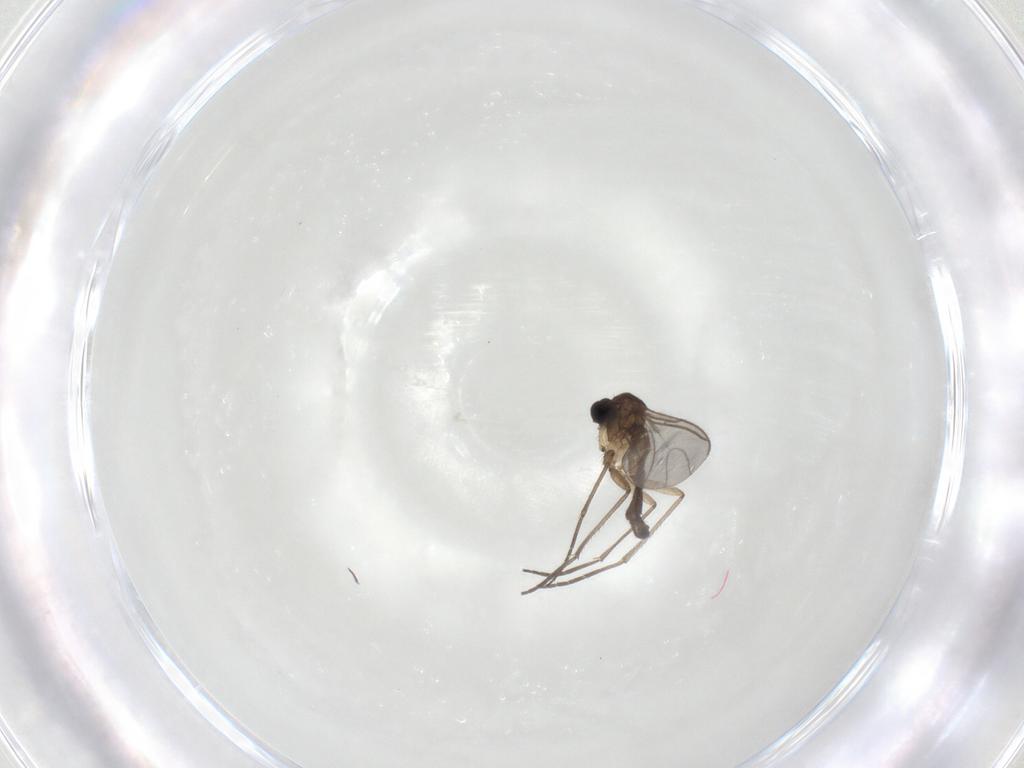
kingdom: Animalia
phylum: Arthropoda
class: Insecta
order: Diptera
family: Sciaridae
